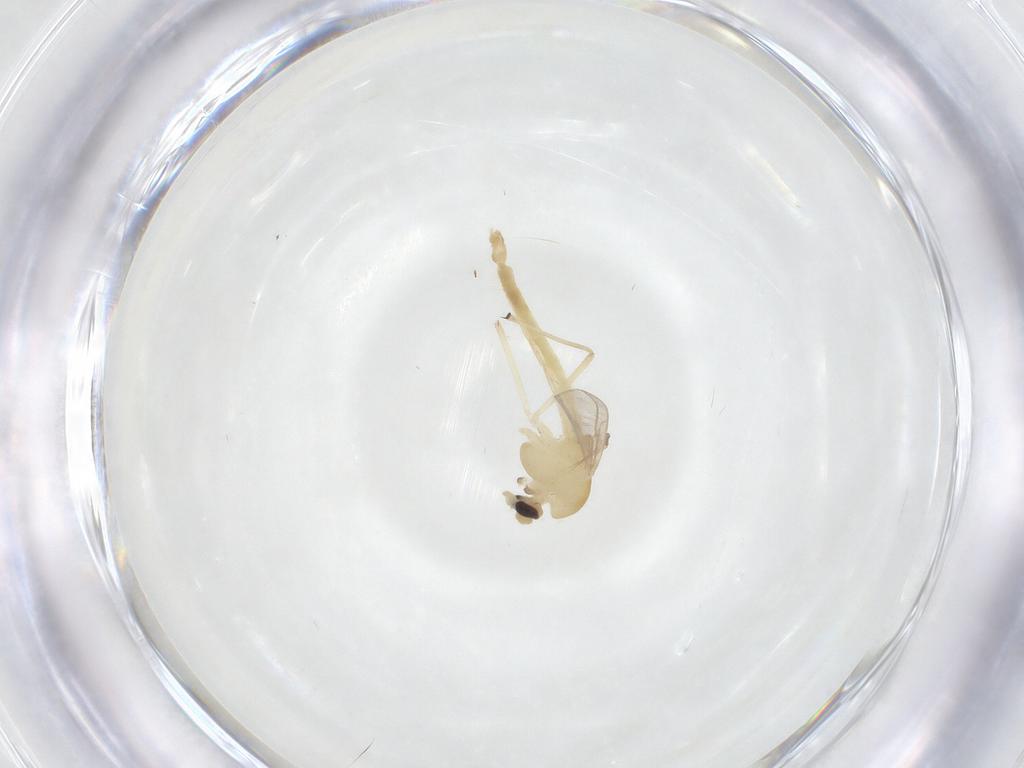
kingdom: Animalia
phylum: Arthropoda
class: Insecta
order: Diptera
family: Chironomidae
